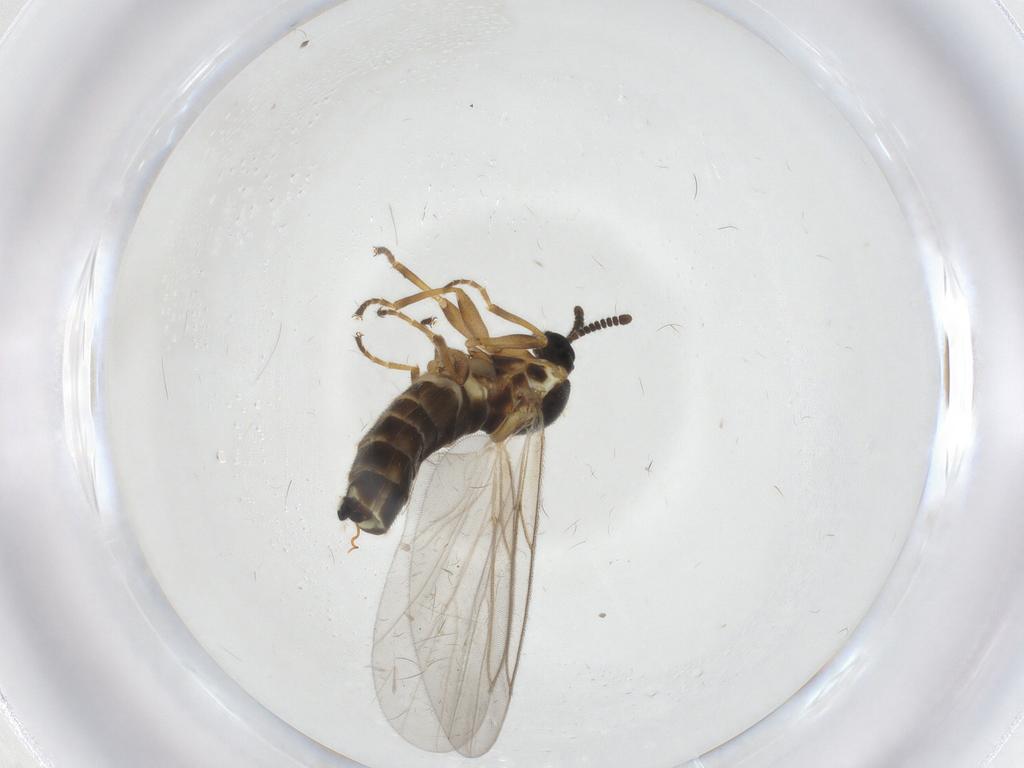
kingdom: Animalia
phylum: Arthropoda
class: Insecta
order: Diptera
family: Scatopsidae
